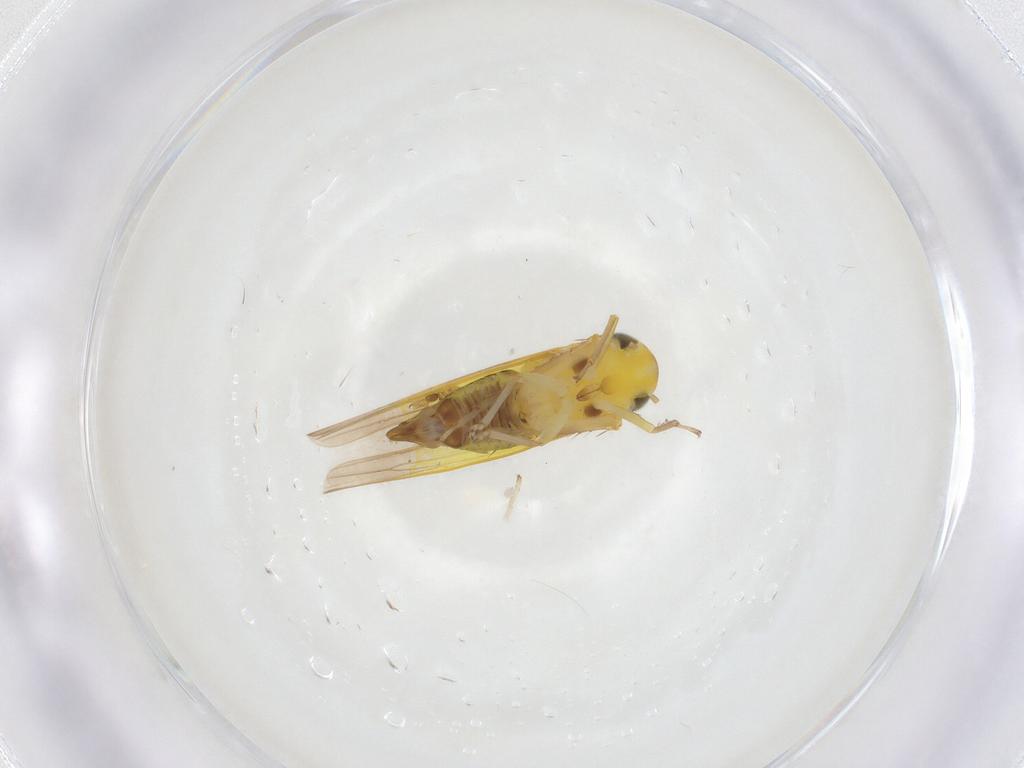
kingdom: Animalia
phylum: Arthropoda
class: Insecta
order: Hemiptera
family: Cicadellidae
